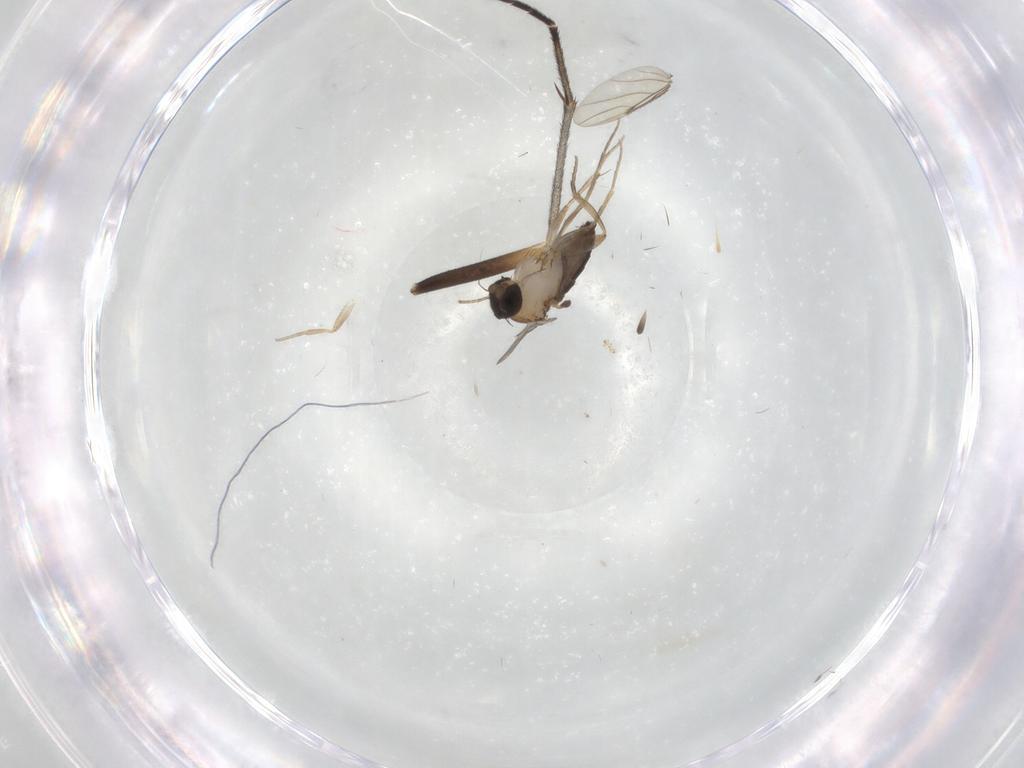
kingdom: Animalia
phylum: Arthropoda
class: Insecta
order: Diptera
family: Phoridae
